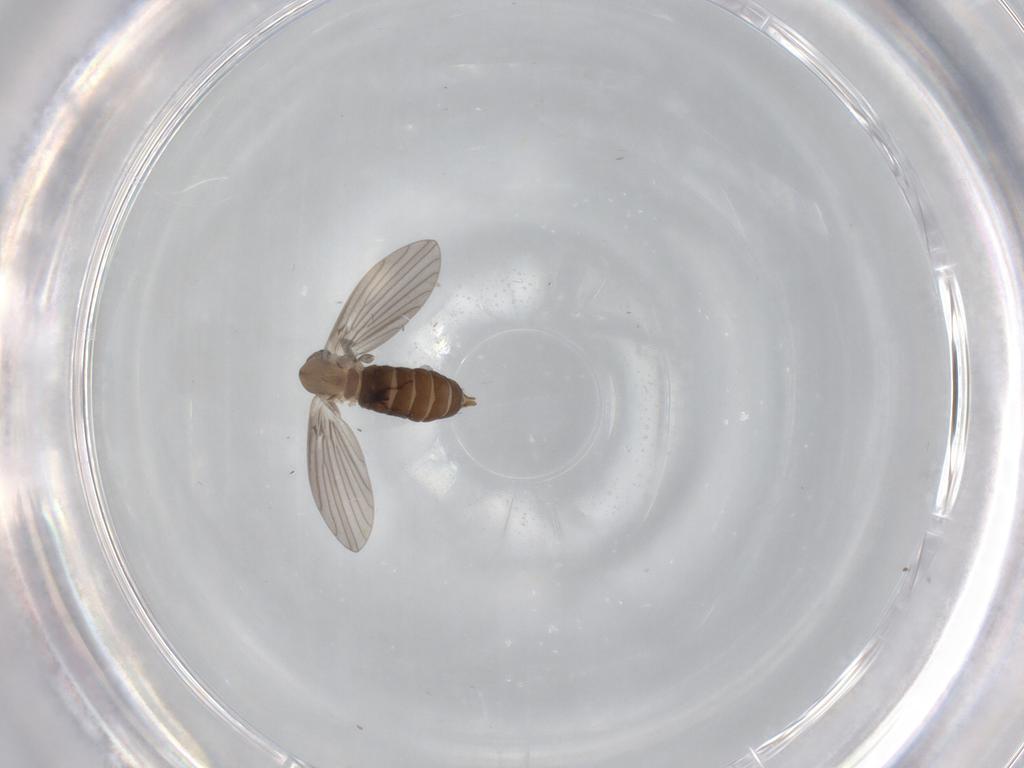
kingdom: Animalia
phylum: Arthropoda
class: Insecta
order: Diptera
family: Psychodidae
